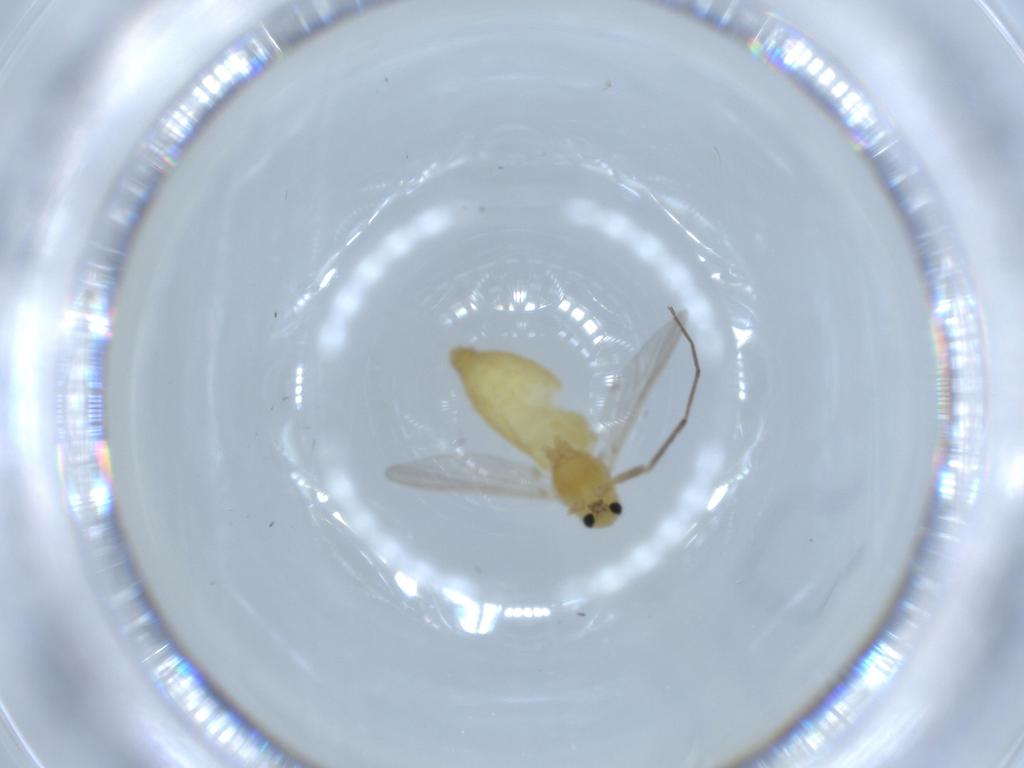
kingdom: Animalia
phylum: Arthropoda
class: Insecta
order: Diptera
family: Chironomidae
